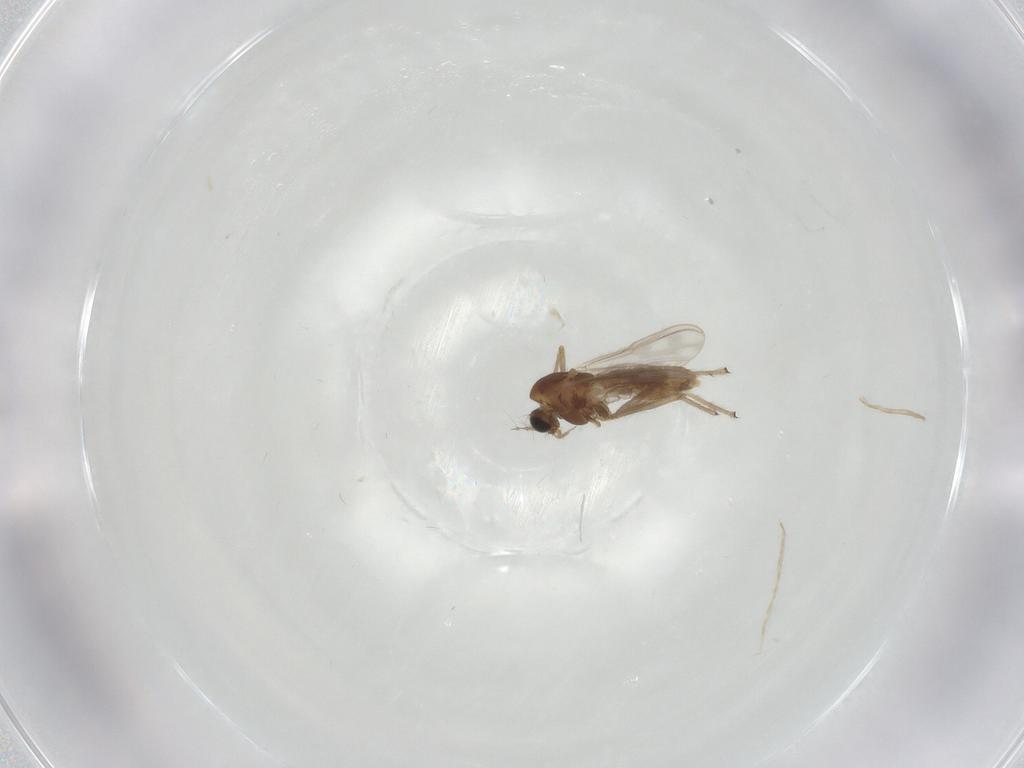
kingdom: Animalia
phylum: Arthropoda
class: Insecta
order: Diptera
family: Chironomidae
